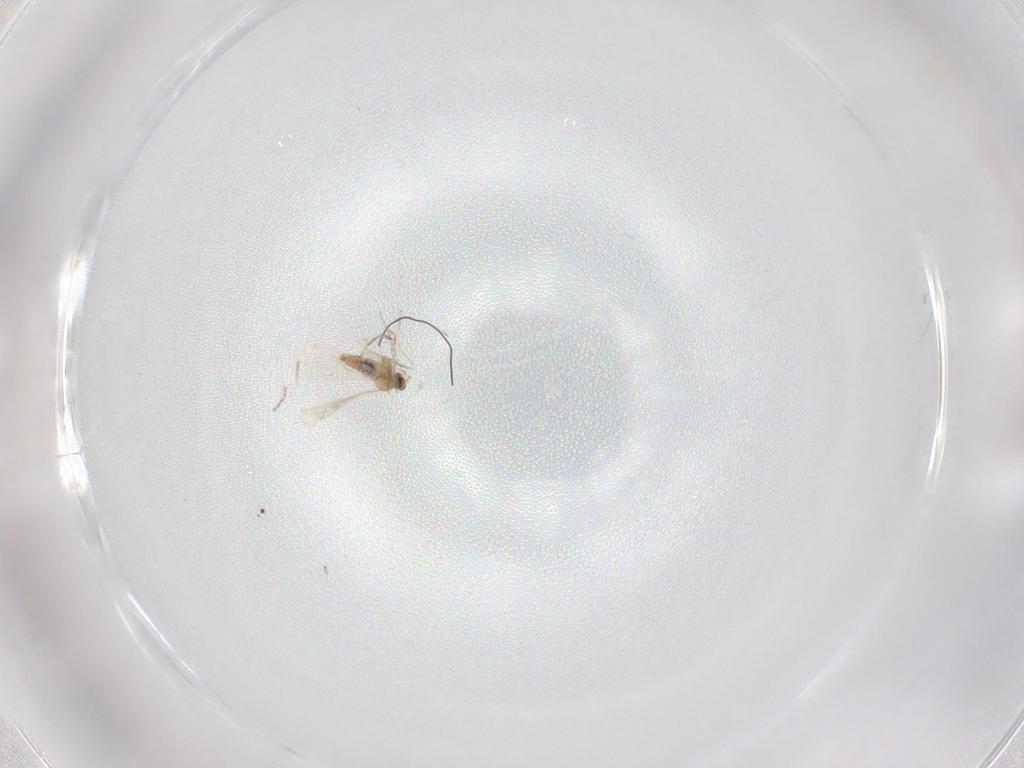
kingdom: Animalia
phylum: Arthropoda
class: Insecta
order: Diptera
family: Cecidomyiidae
